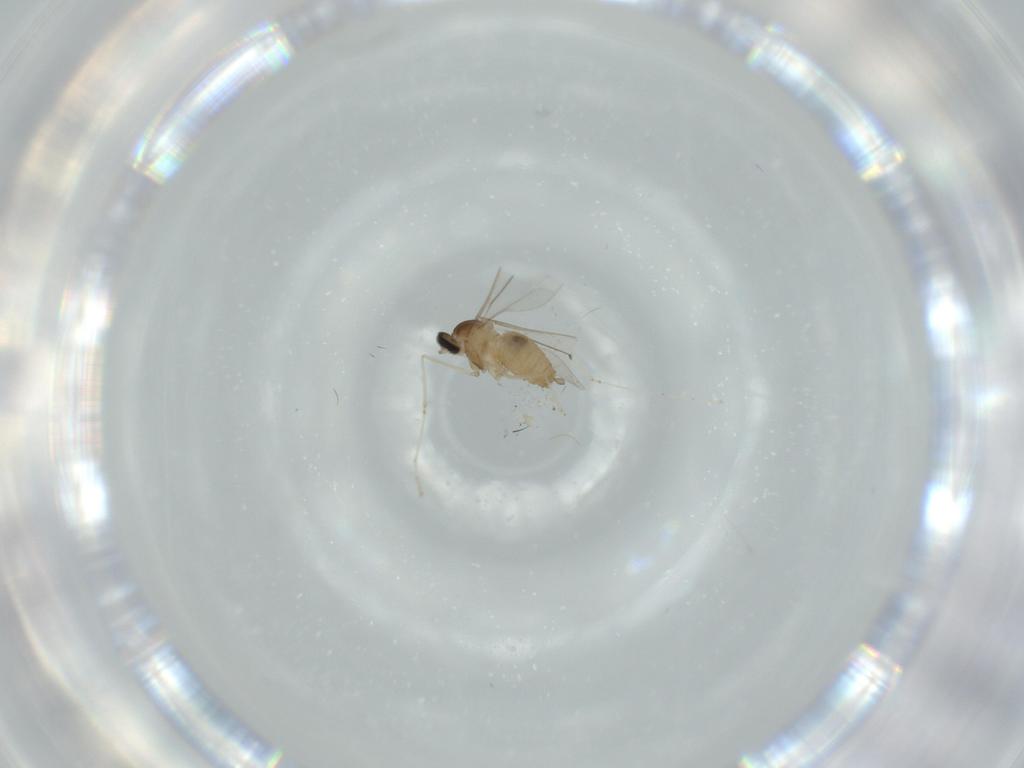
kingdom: Animalia
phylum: Arthropoda
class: Insecta
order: Diptera
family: Cecidomyiidae
